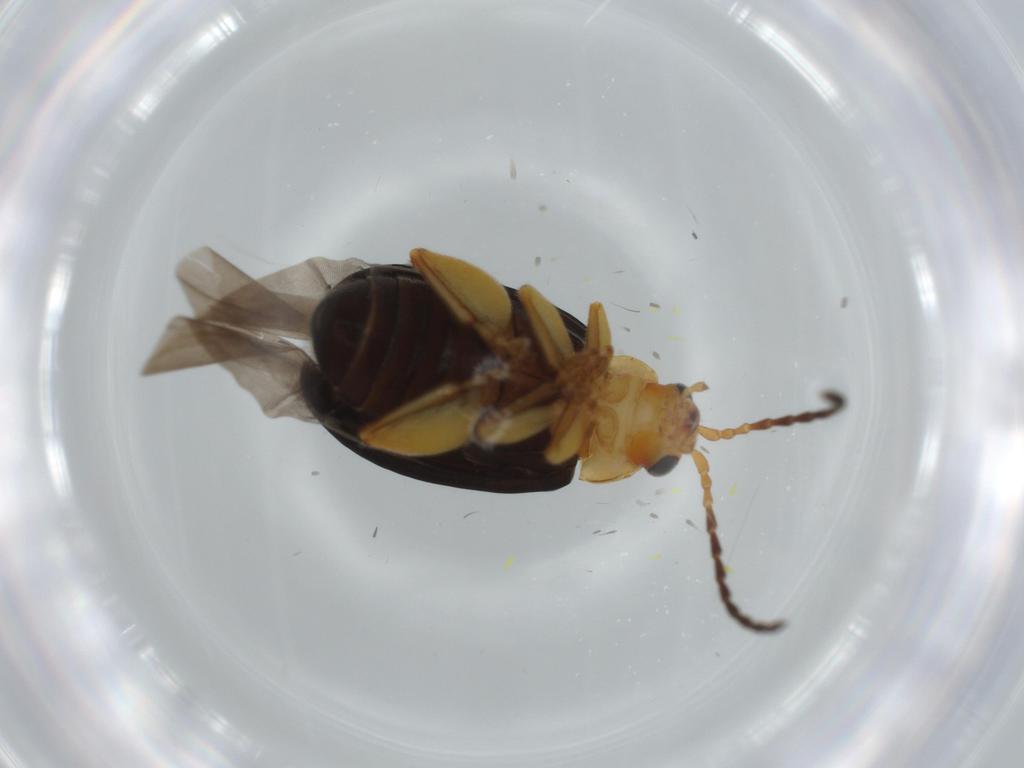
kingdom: Animalia
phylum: Arthropoda
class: Insecta
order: Coleoptera
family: Chrysomelidae
